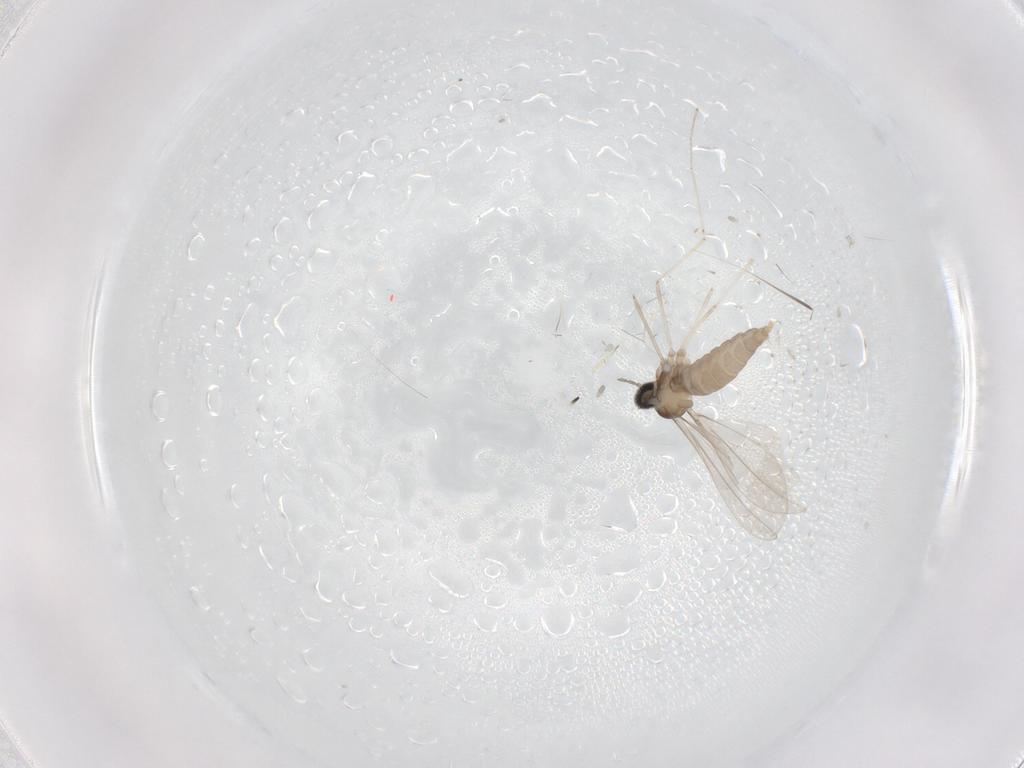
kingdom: Animalia
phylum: Arthropoda
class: Insecta
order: Diptera
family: Cecidomyiidae
